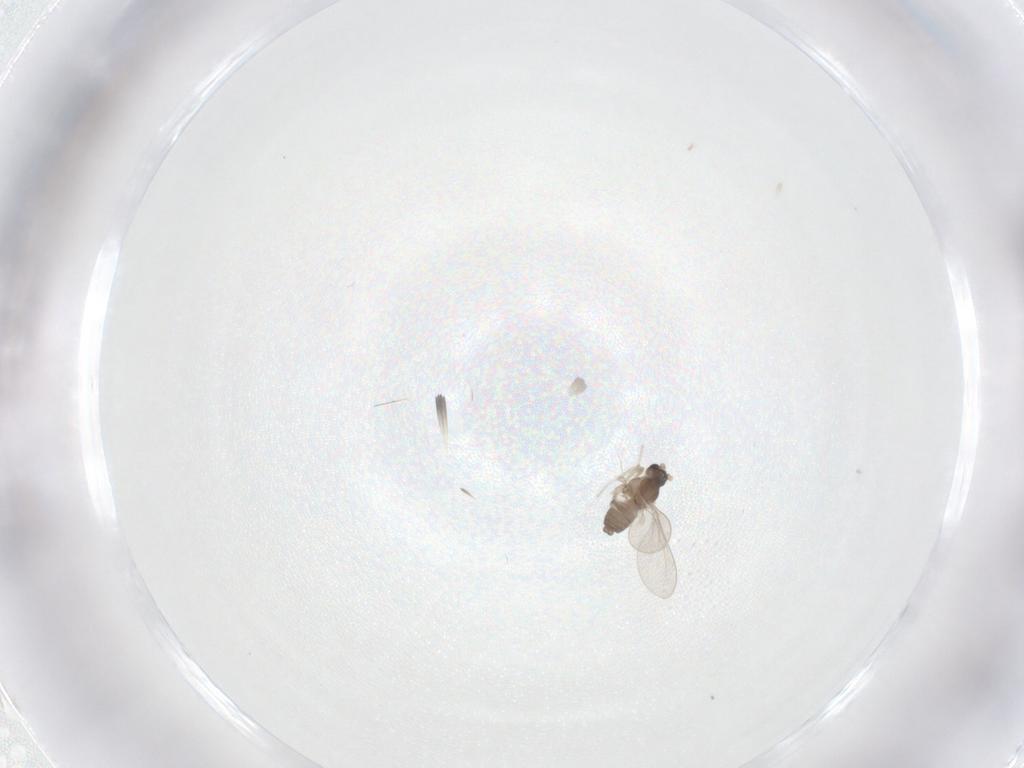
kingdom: Animalia
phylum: Arthropoda
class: Insecta
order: Diptera
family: Cecidomyiidae
